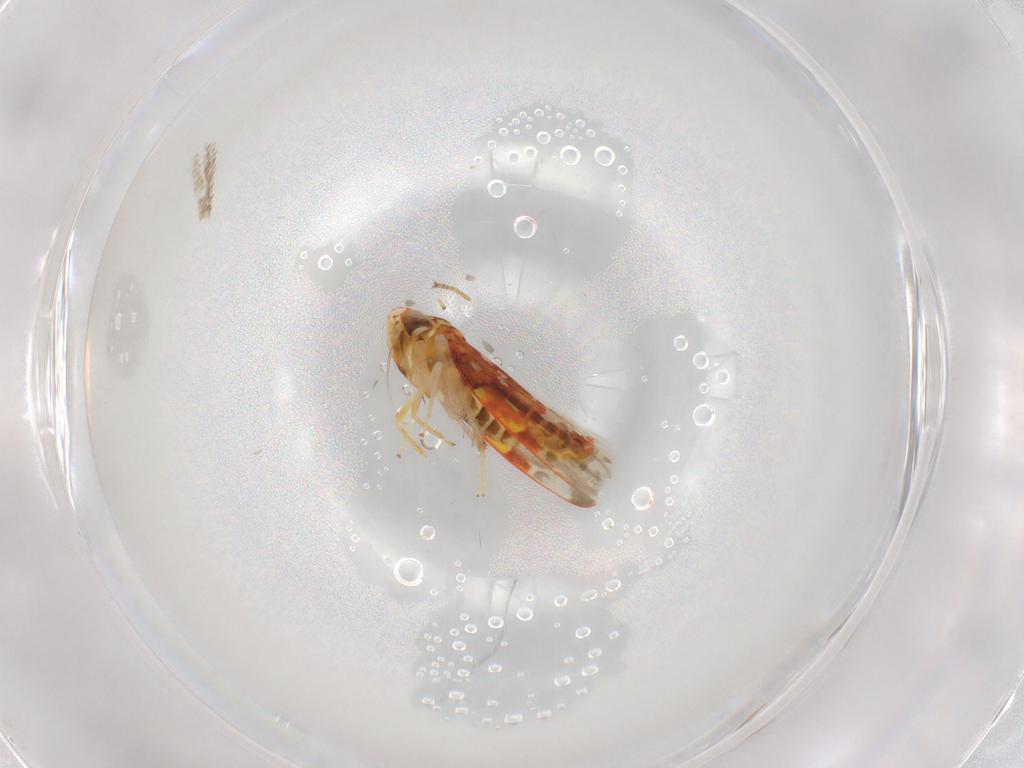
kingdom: Animalia
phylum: Arthropoda
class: Insecta
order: Hemiptera
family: Cicadellidae
